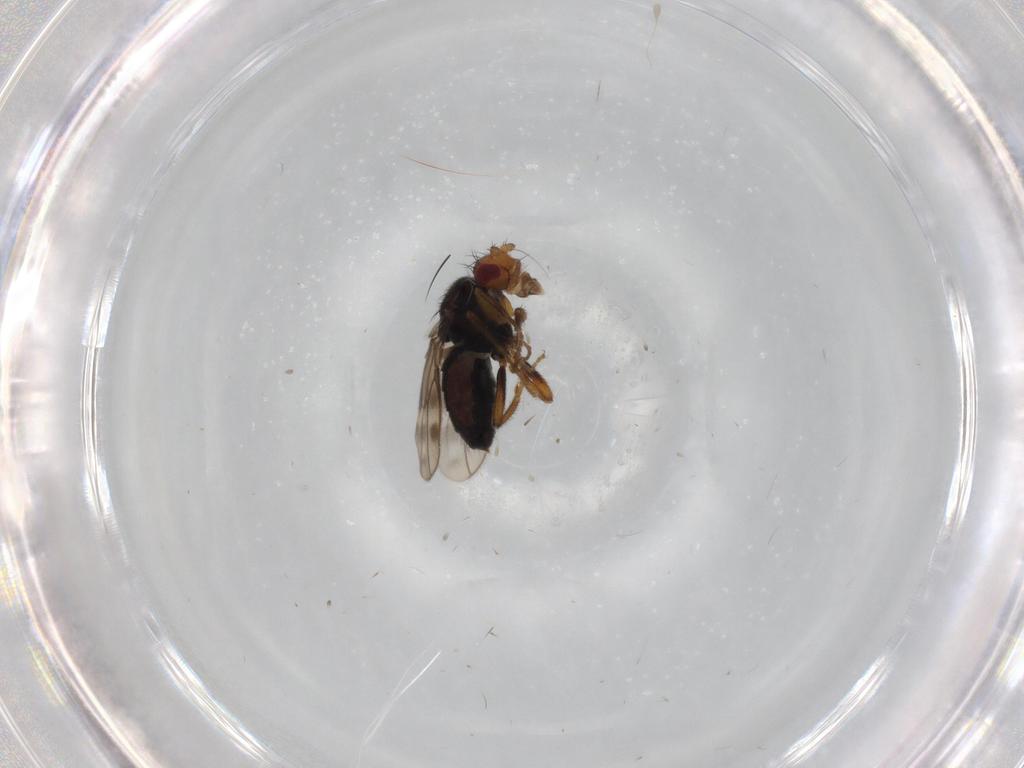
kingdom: Animalia
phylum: Arthropoda
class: Insecta
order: Diptera
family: Sphaeroceridae
